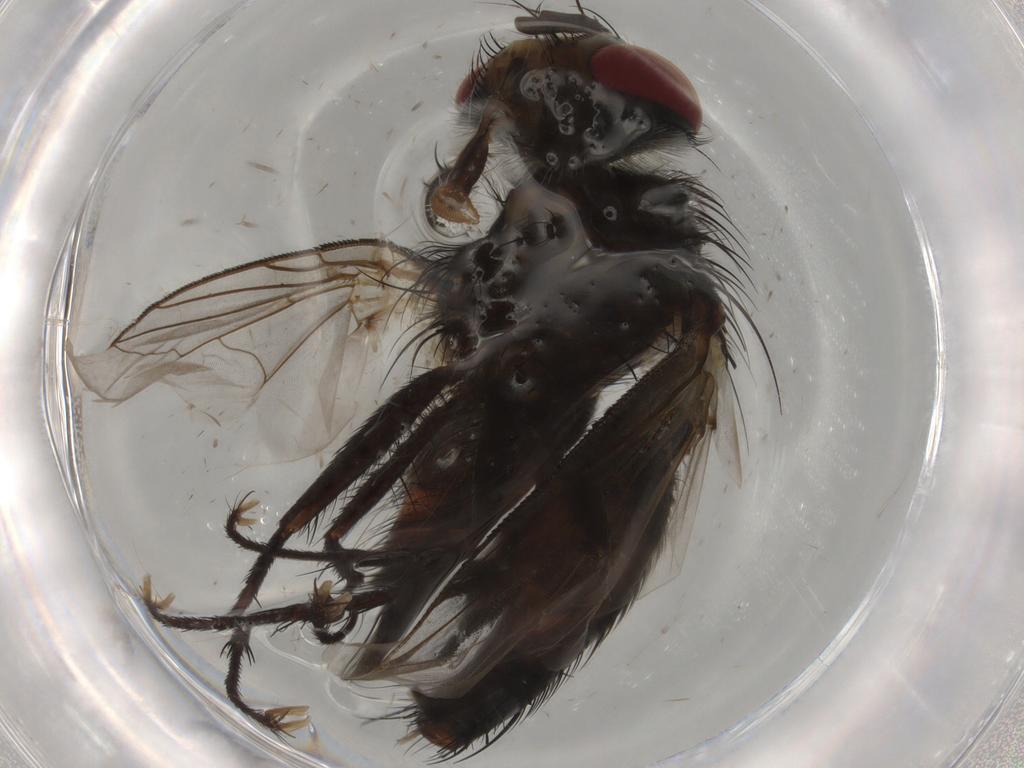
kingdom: Animalia
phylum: Arthropoda
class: Insecta
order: Diptera
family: Tachinidae
